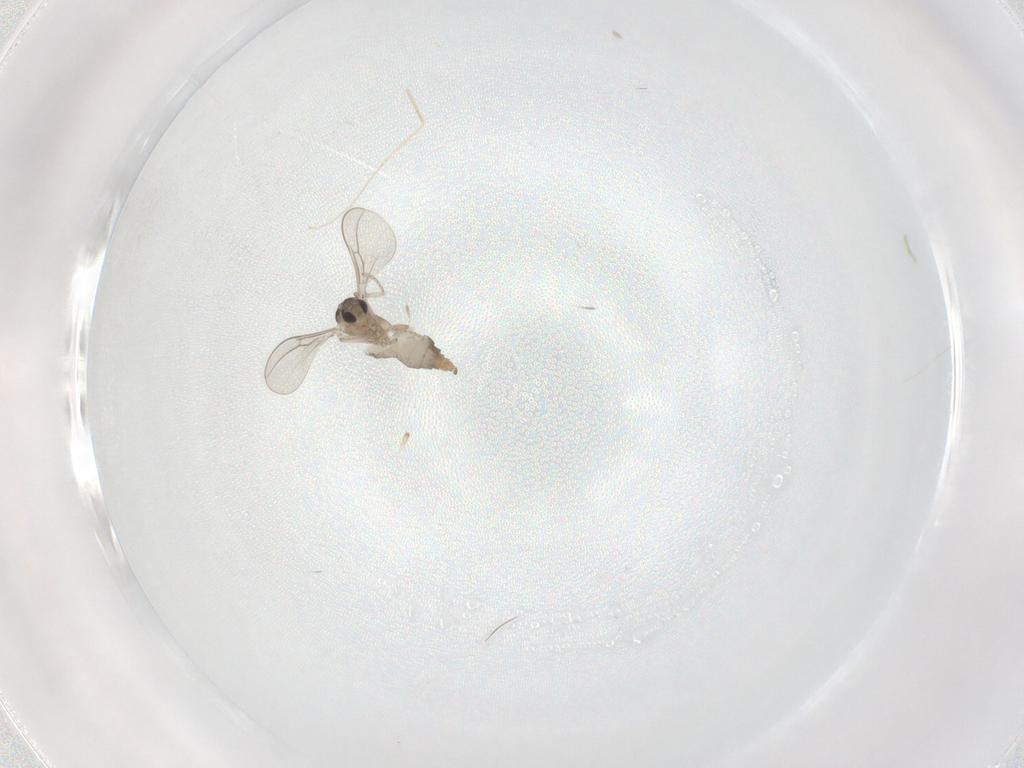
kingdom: Animalia
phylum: Arthropoda
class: Insecta
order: Diptera
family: Cecidomyiidae
